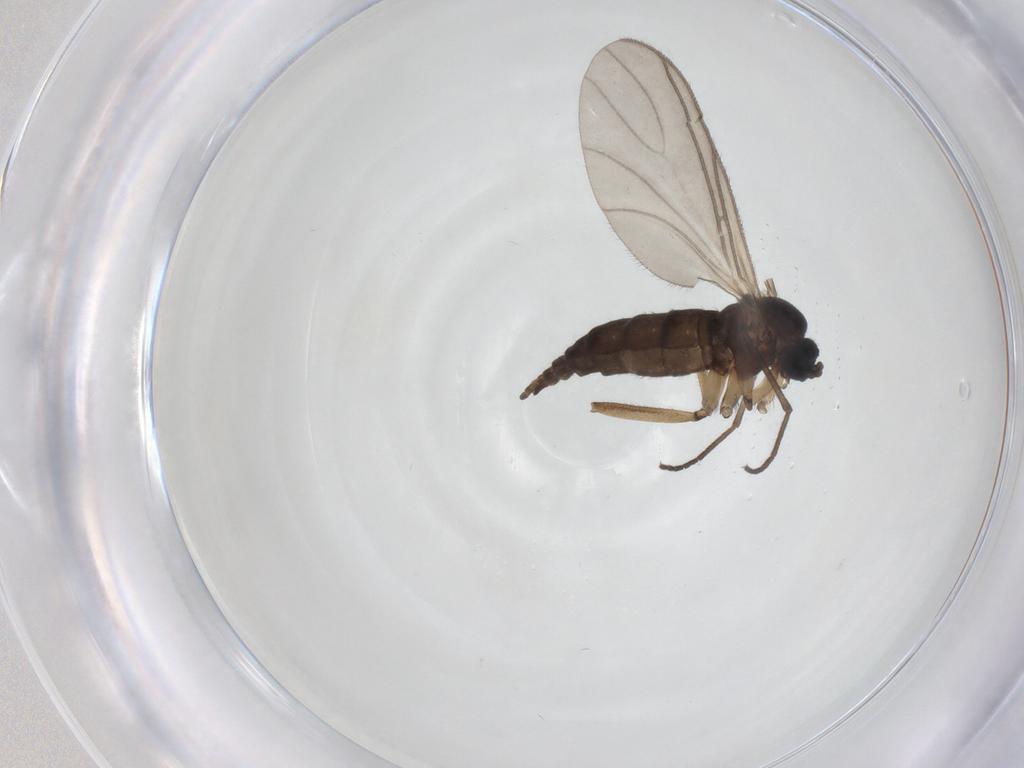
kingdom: Animalia
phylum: Arthropoda
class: Insecta
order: Diptera
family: Sciaridae
